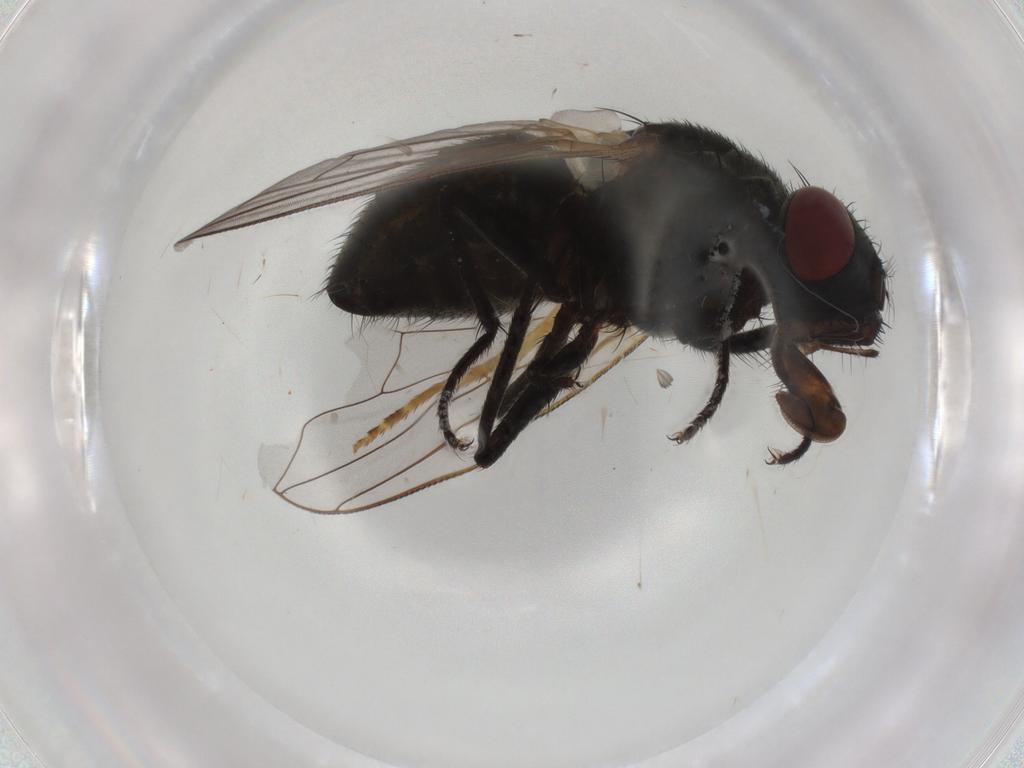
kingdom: Animalia
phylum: Arthropoda
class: Insecta
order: Diptera
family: Muscidae
